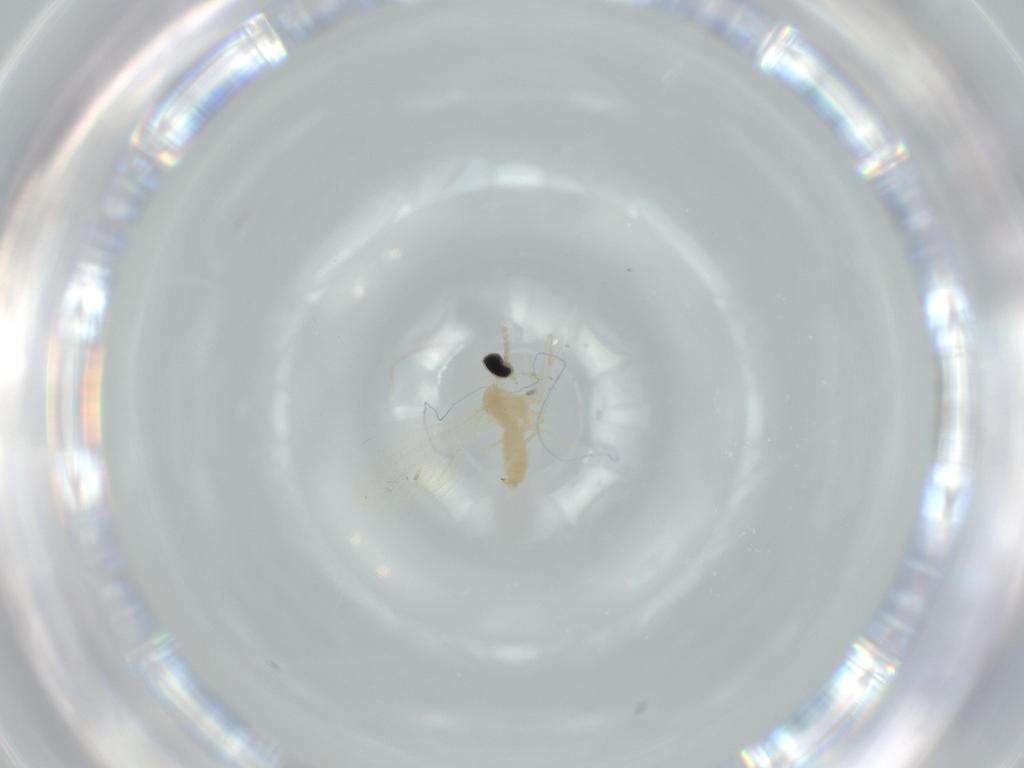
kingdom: Animalia
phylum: Arthropoda
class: Insecta
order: Diptera
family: Cecidomyiidae
